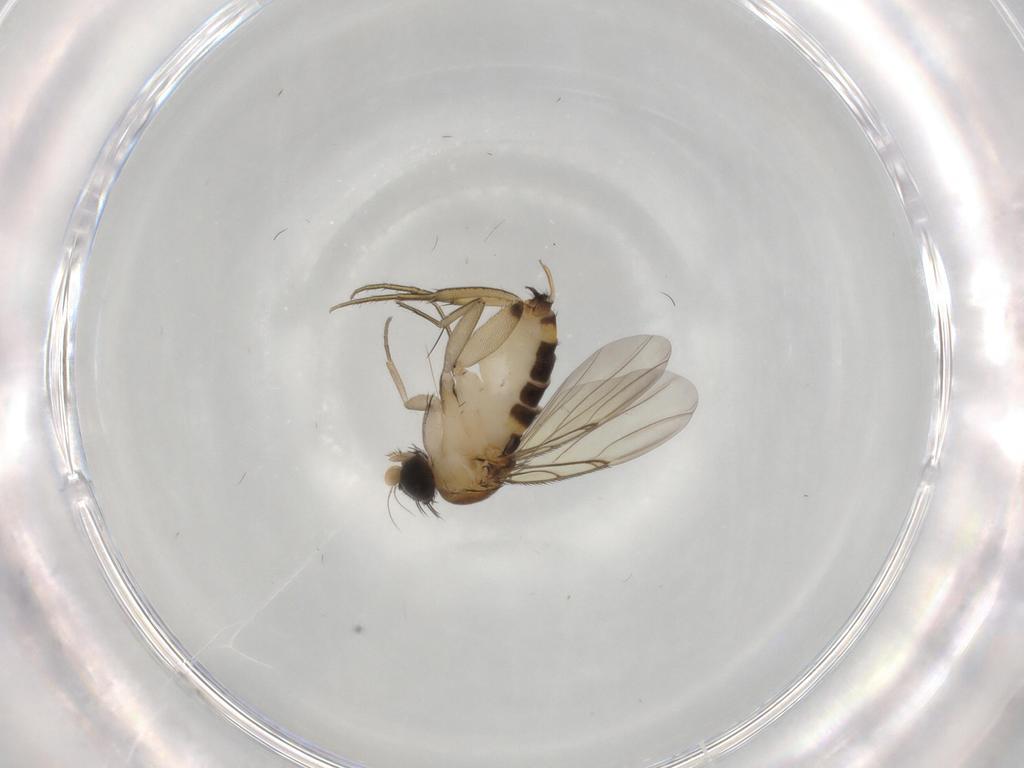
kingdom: Animalia
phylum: Arthropoda
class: Insecta
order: Diptera
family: Phoridae
